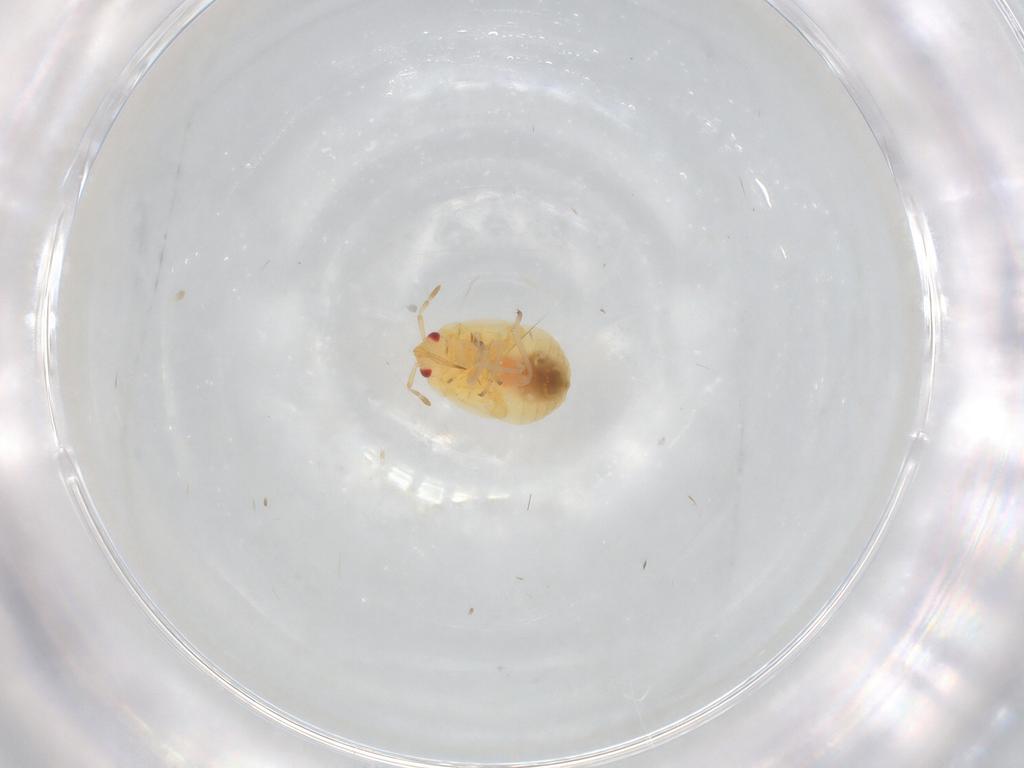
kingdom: Animalia
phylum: Arthropoda
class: Insecta
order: Hemiptera
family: Anthocoridae
